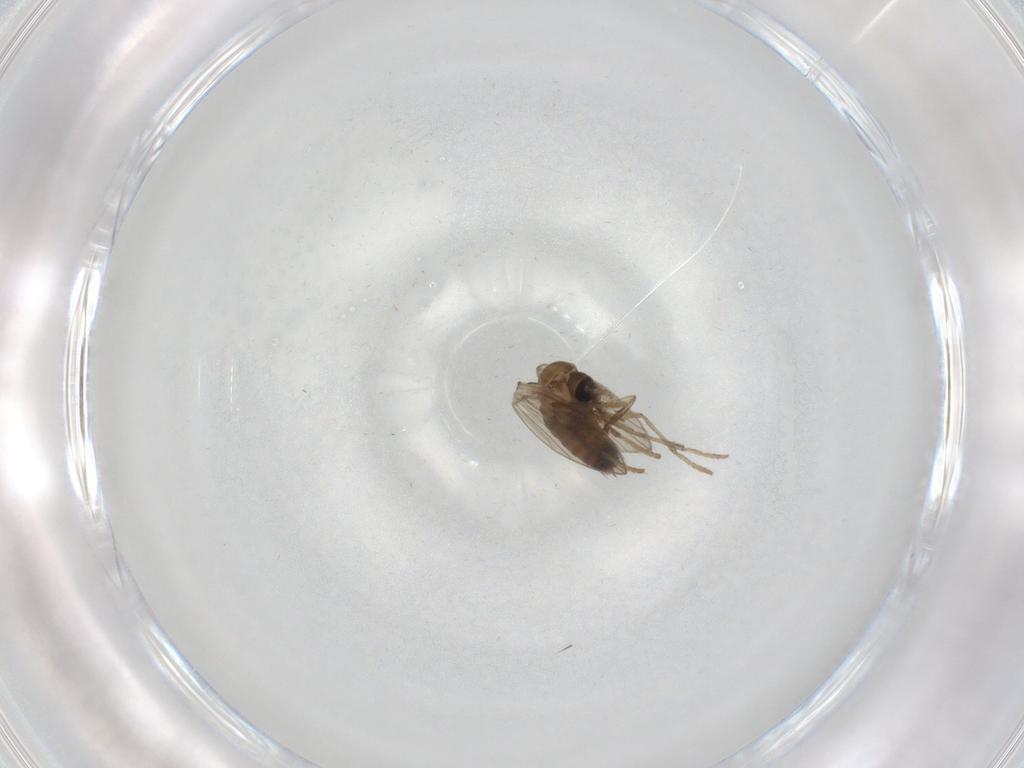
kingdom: Animalia
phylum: Arthropoda
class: Insecta
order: Diptera
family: Psychodidae
